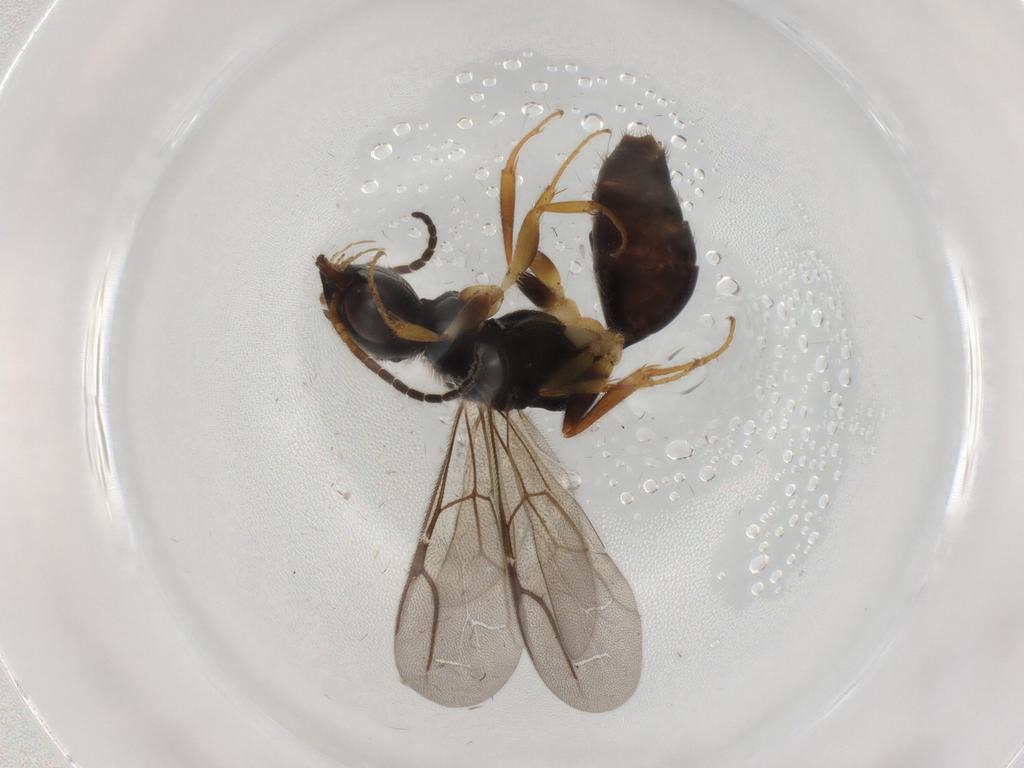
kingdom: Animalia
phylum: Arthropoda
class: Insecta
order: Hymenoptera
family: Bethylidae
